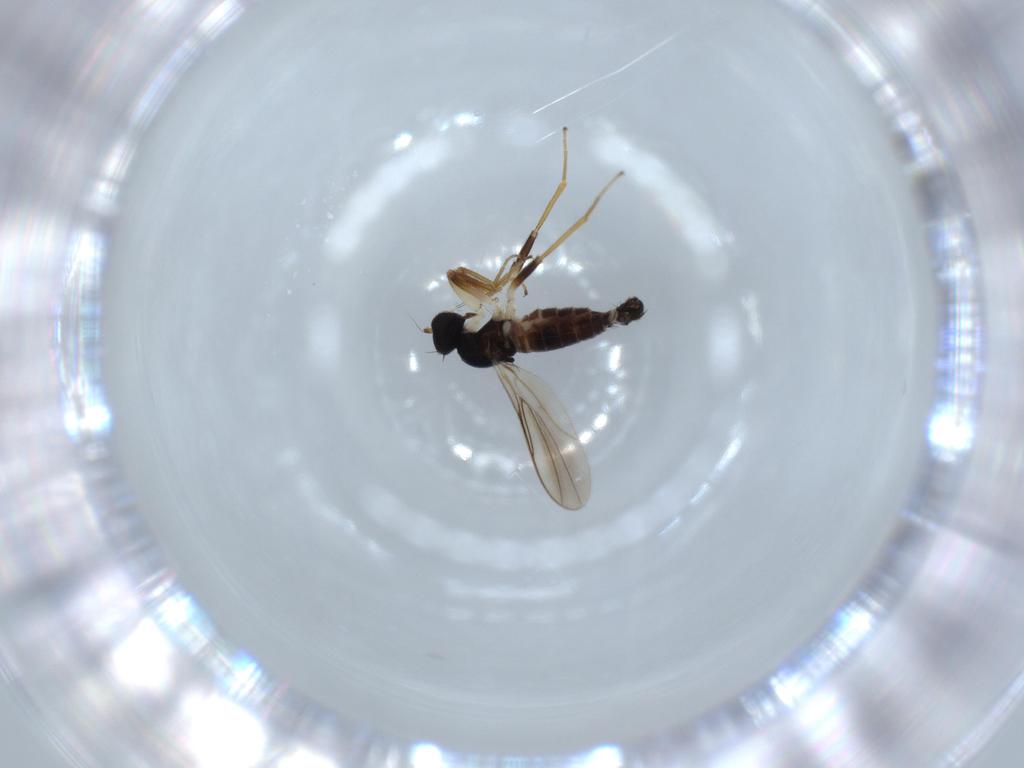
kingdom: Animalia
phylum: Arthropoda
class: Insecta
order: Diptera
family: Hybotidae
